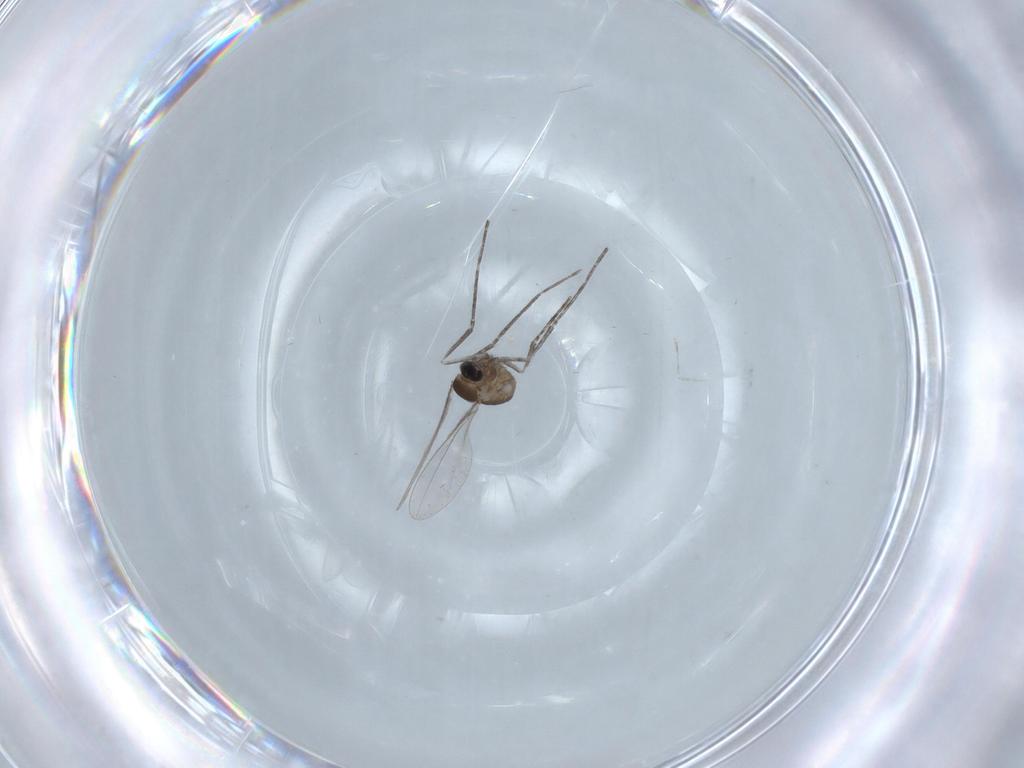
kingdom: Animalia
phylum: Arthropoda
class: Insecta
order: Diptera
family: Cecidomyiidae
